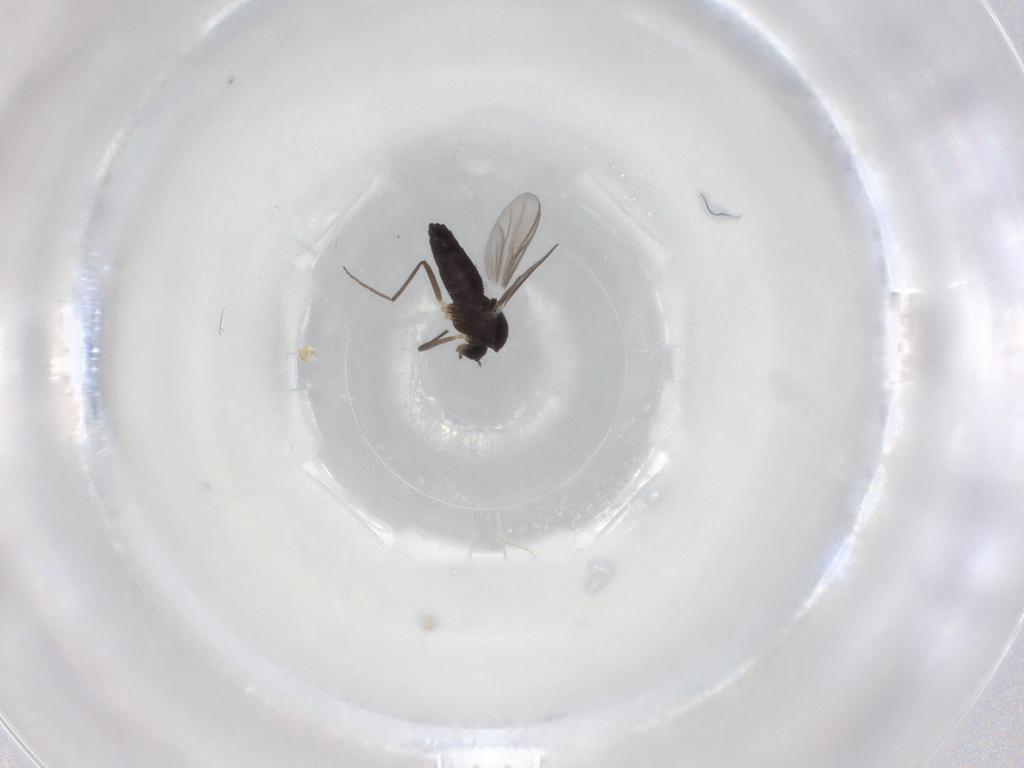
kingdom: Animalia
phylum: Arthropoda
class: Insecta
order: Diptera
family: Chironomidae
